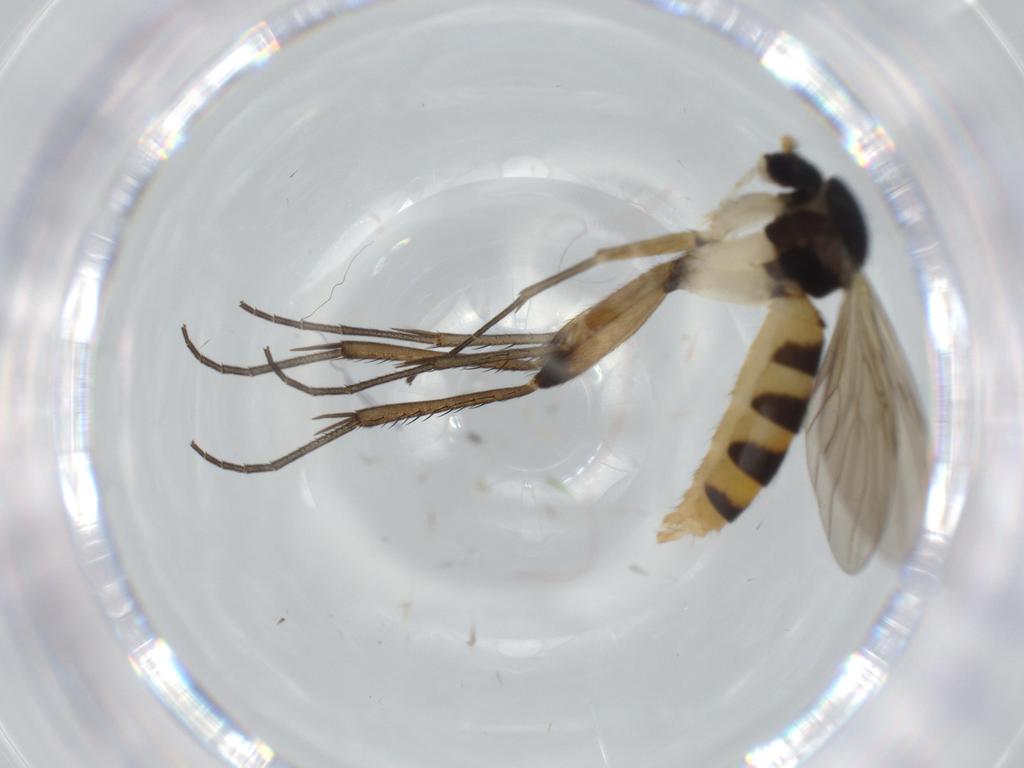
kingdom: Animalia
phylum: Arthropoda
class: Insecta
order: Diptera
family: Mycetophilidae
